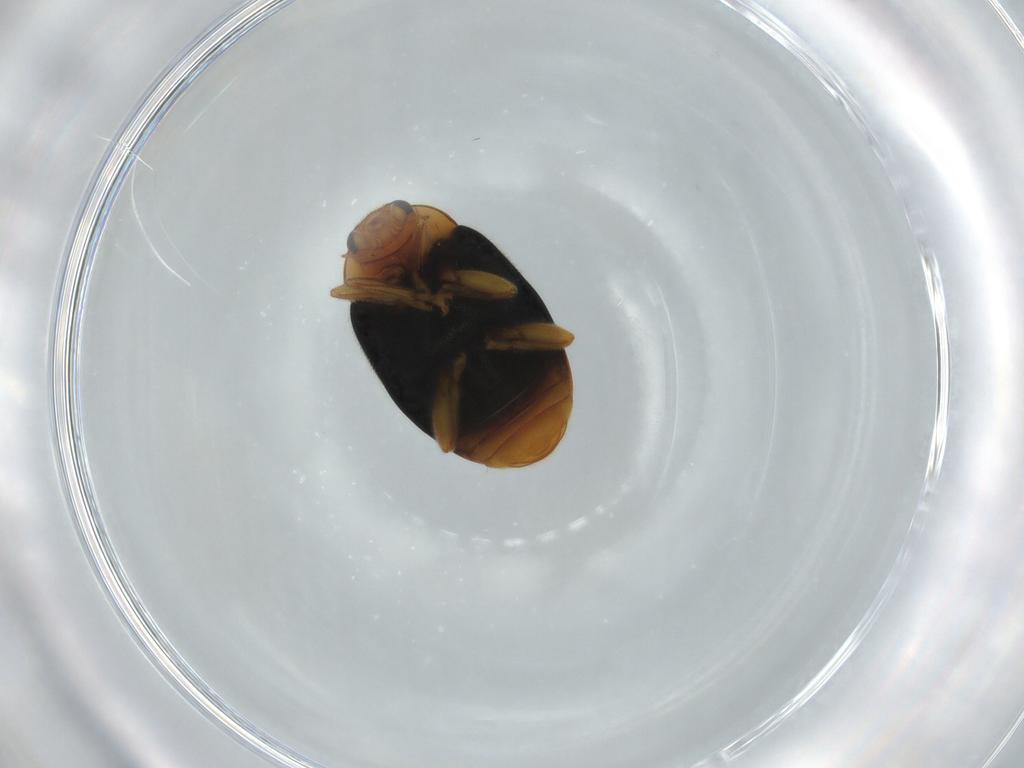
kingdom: Animalia
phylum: Arthropoda
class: Insecta
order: Coleoptera
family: Coccinellidae
